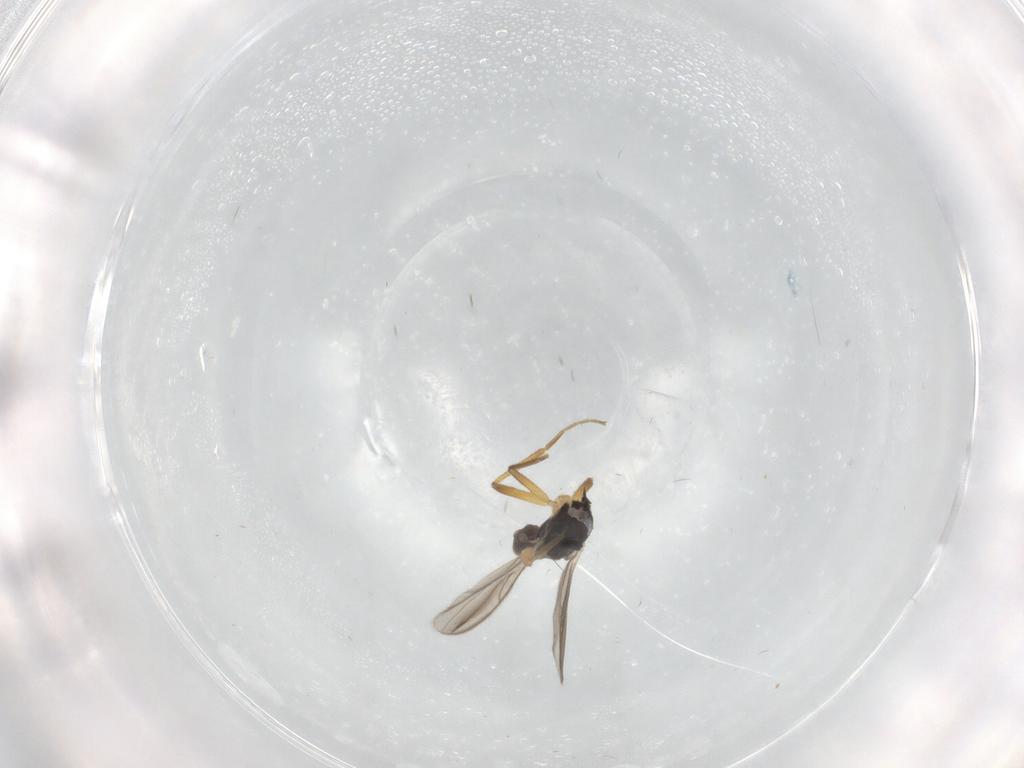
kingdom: Animalia
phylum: Arthropoda
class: Insecta
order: Diptera
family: Hybotidae
